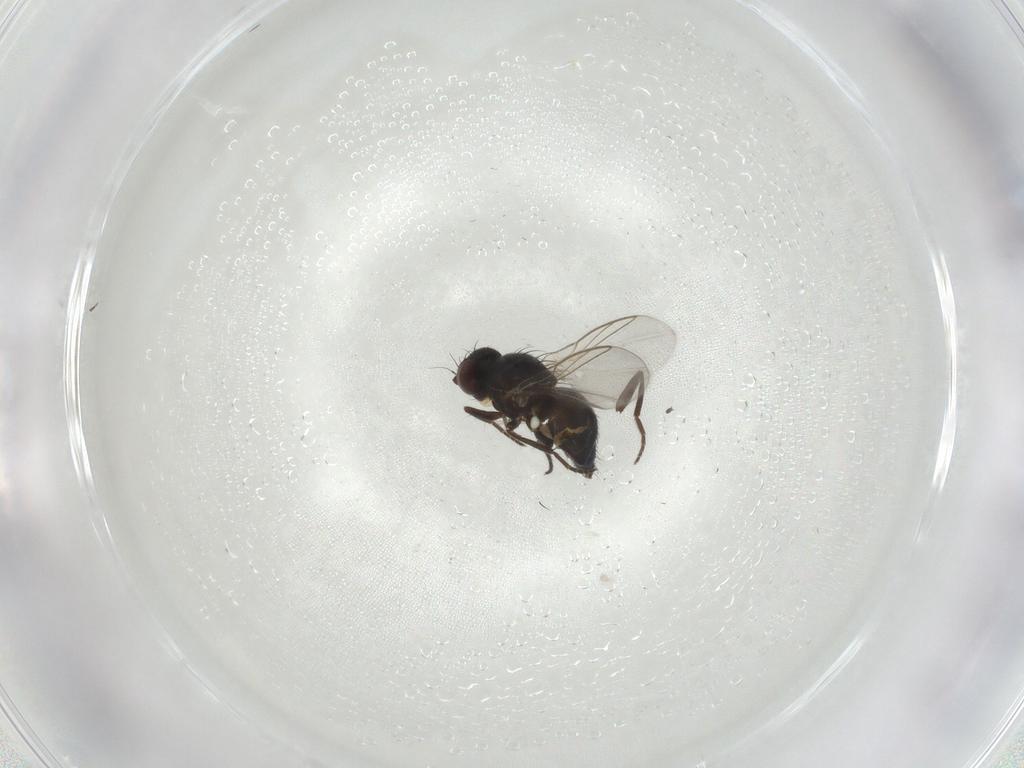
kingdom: Animalia
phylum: Arthropoda
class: Insecta
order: Diptera
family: Agromyzidae
